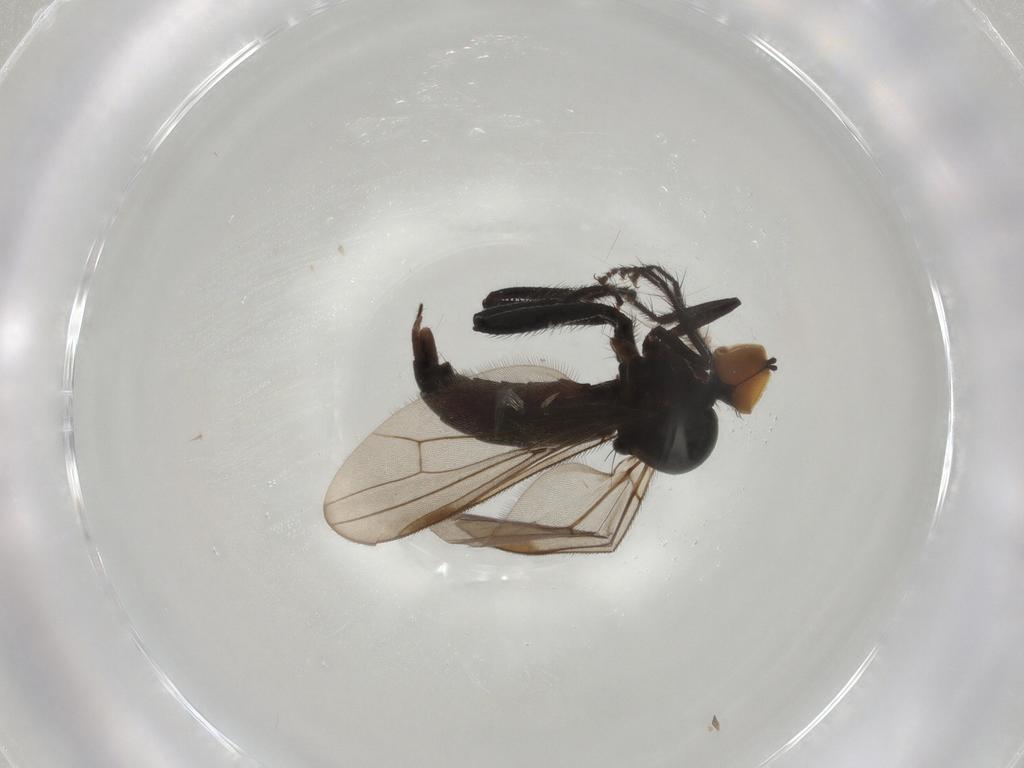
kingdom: Animalia
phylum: Arthropoda
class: Insecta
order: Diptera
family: Hybotidae
